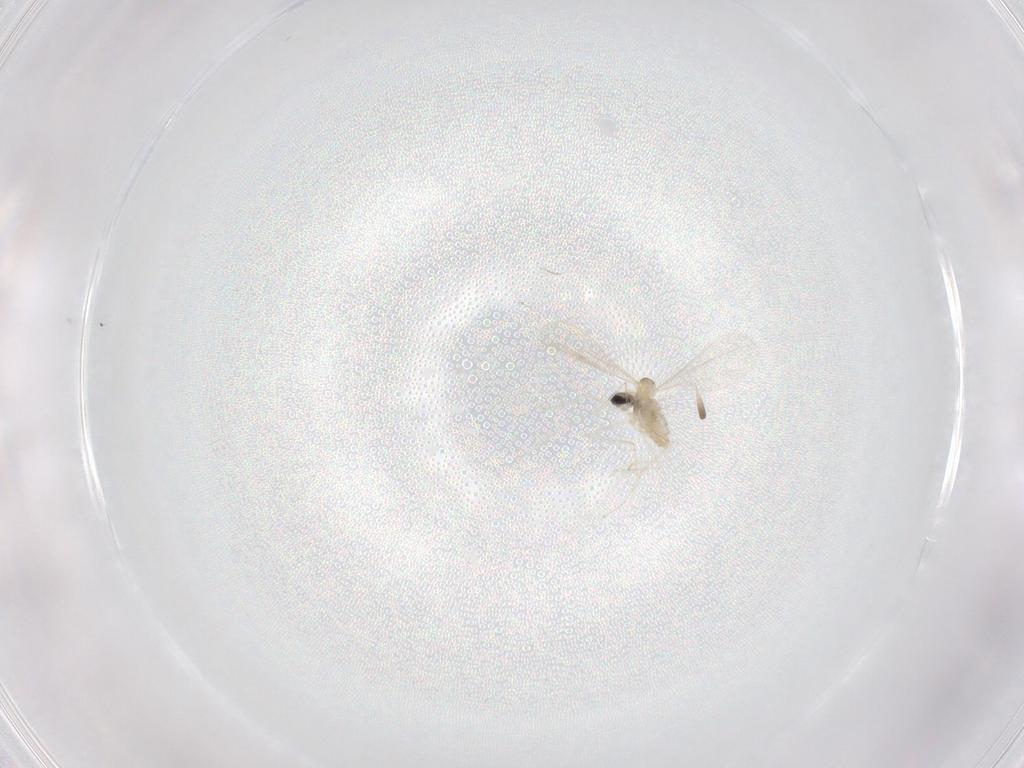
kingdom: Animalia
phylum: Arthropoda
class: Insecta
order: Diptera
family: Cecidomyiidae
